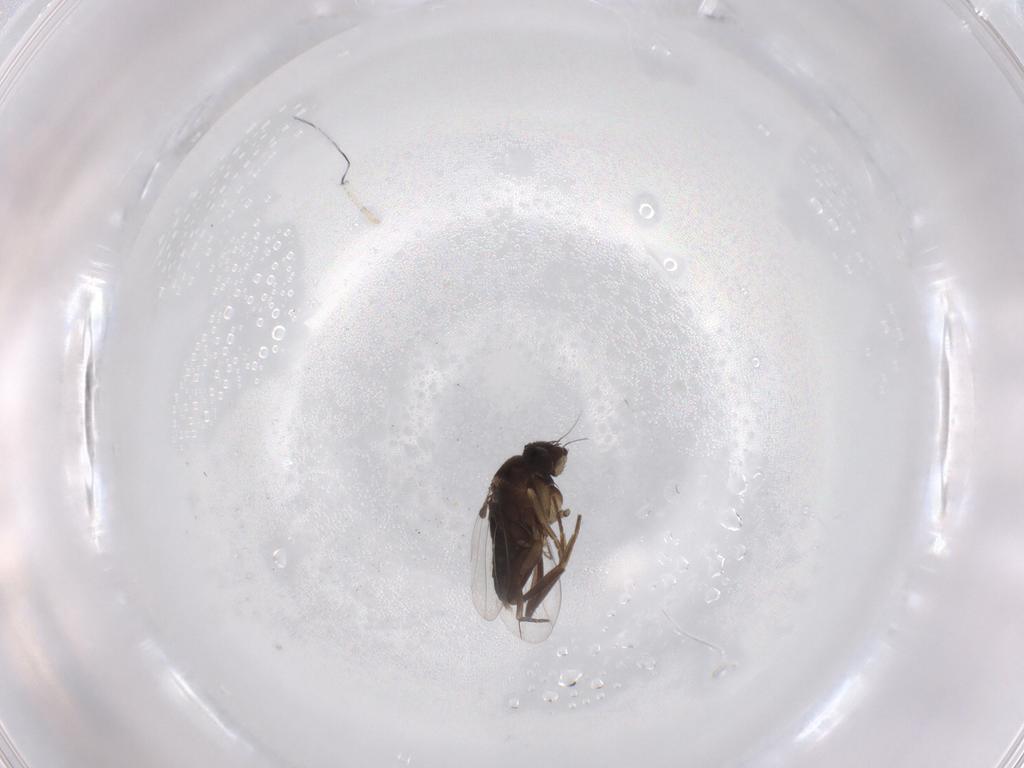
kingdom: Animalia
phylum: Arthropoda
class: Insecta
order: Diptera
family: Phoridae
